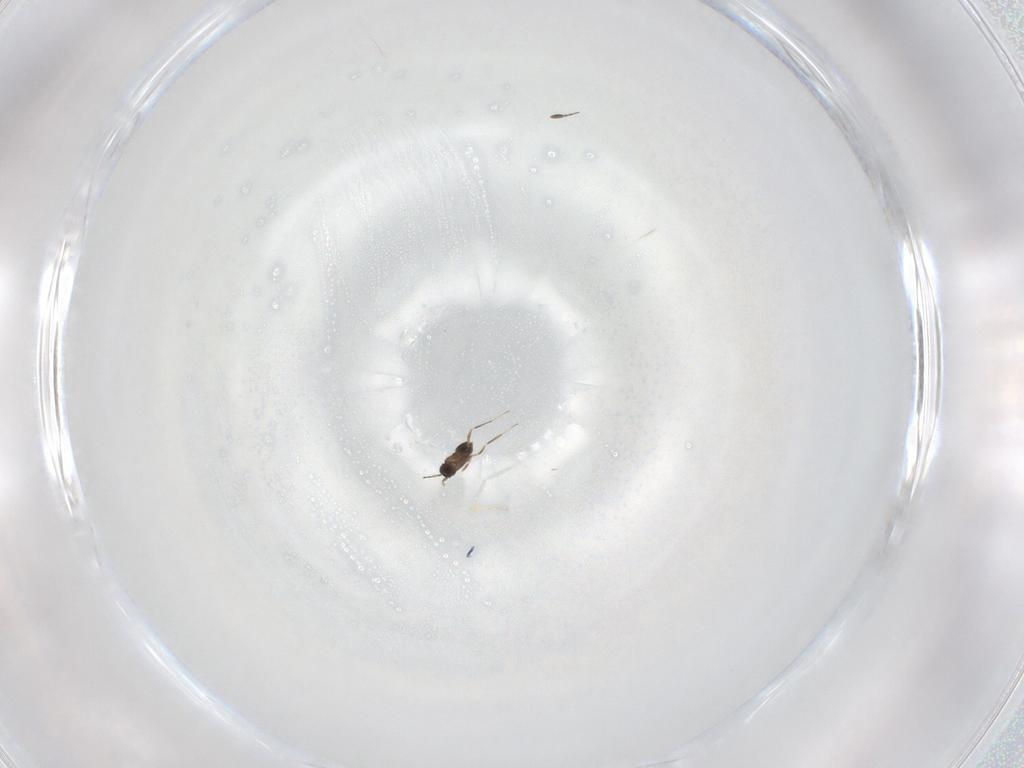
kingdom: Animalia
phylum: Arthropoda
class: Insecta
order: Hymenoptera
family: Mymaridae
